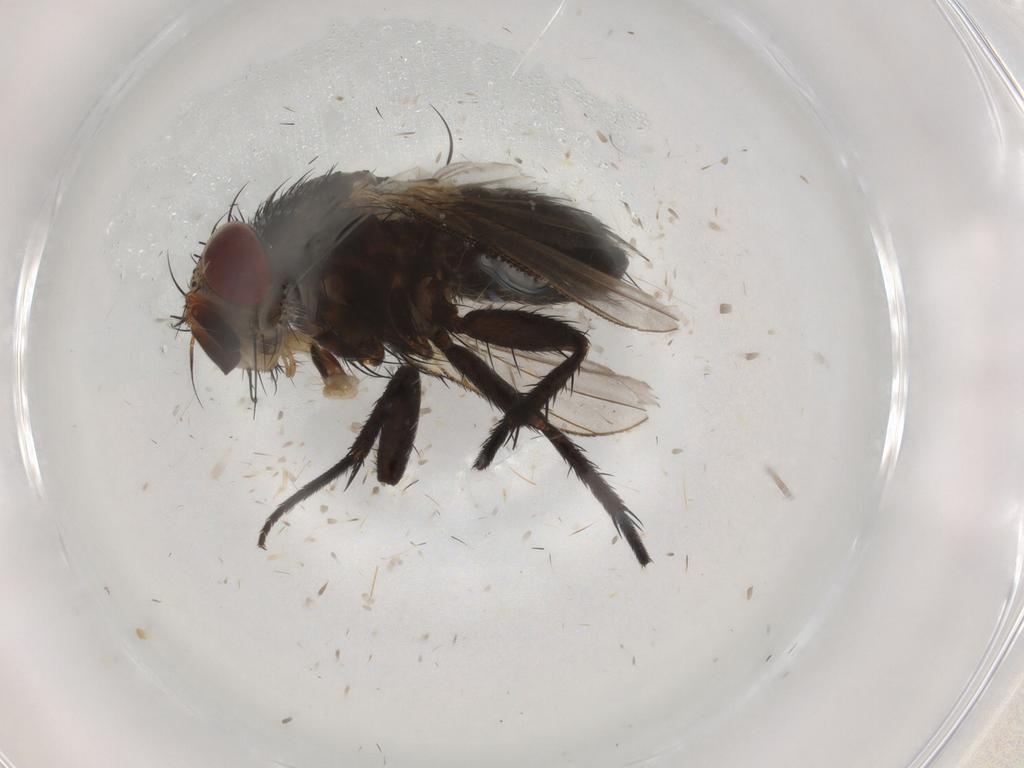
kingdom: Animalia
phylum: Arthropoda
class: Insecta
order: Diptera
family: Tachinidae
